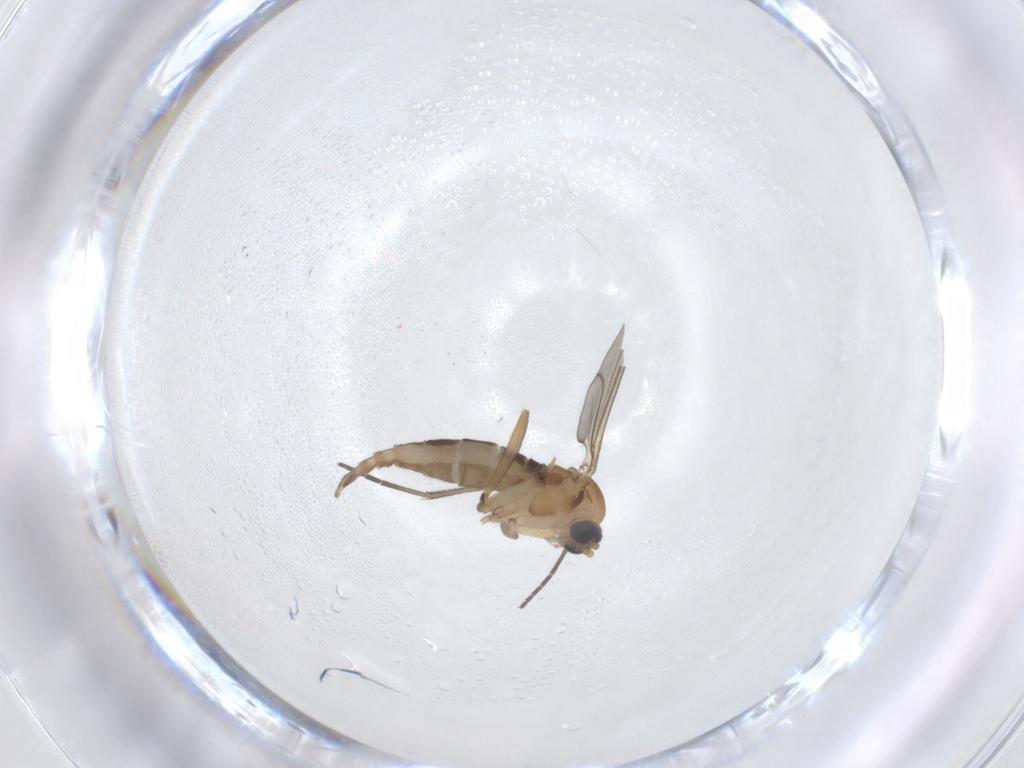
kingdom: Animalia
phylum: Arthropoda
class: Insecta
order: Diptera
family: Sciaridae
